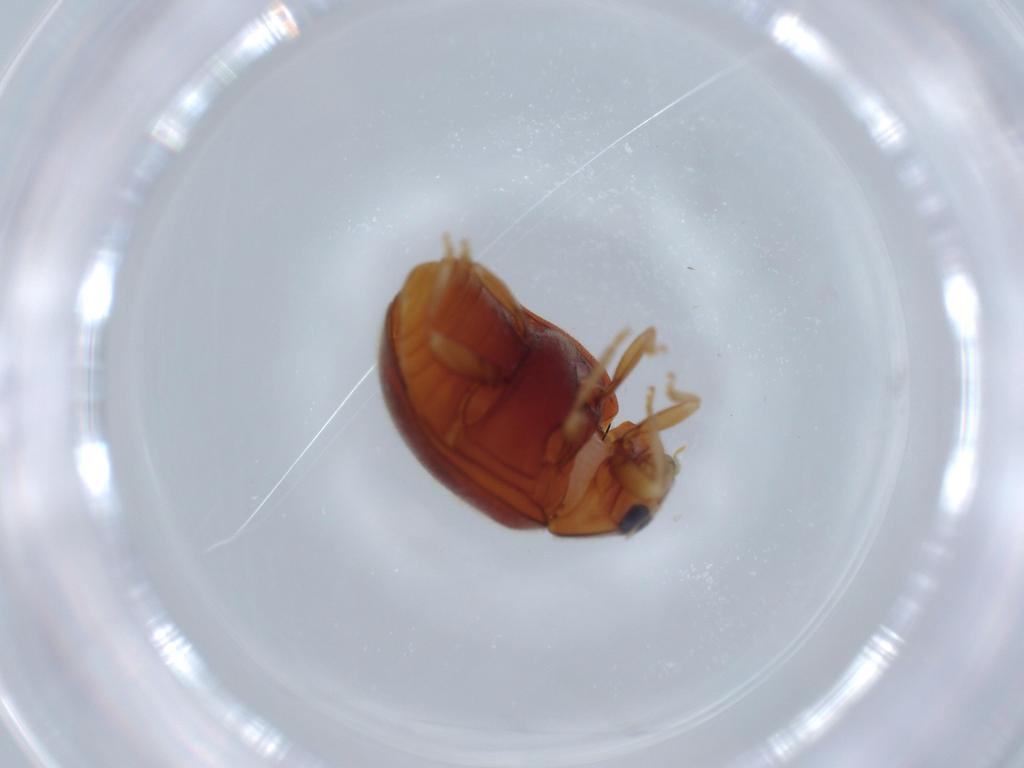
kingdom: Animalia
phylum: Arthropoda
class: Insecta
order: Coleoptera
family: Coccinellidae
